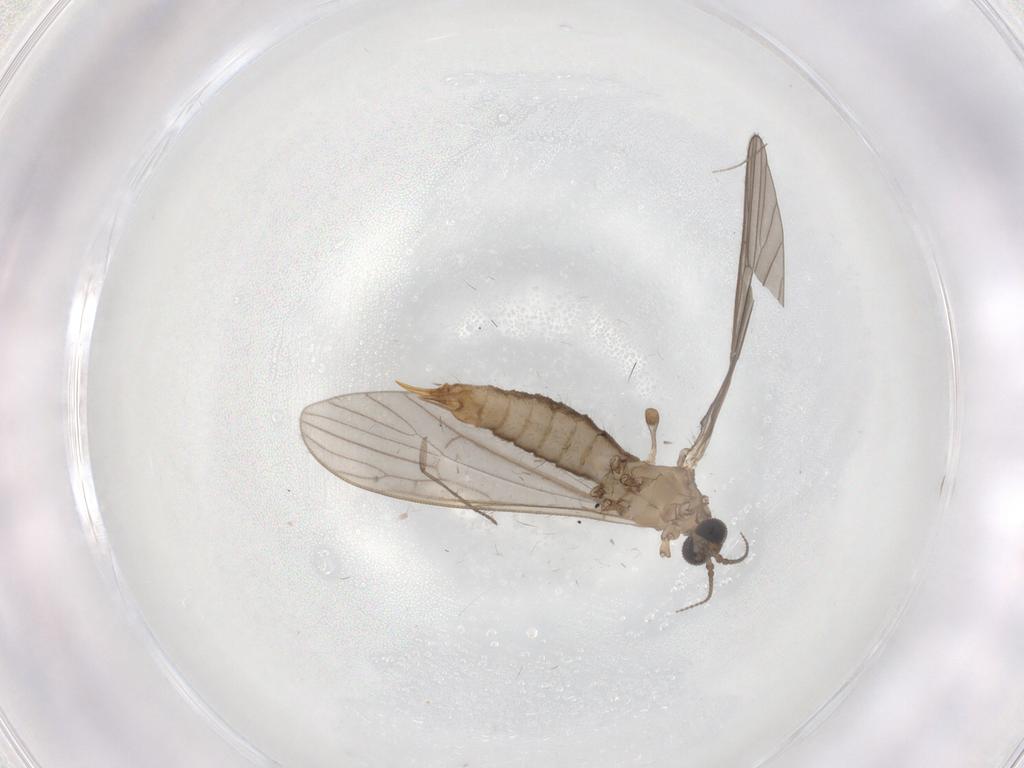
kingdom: Animalia
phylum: Arthropoda
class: Insecta
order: Diptera
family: Limoniidae
